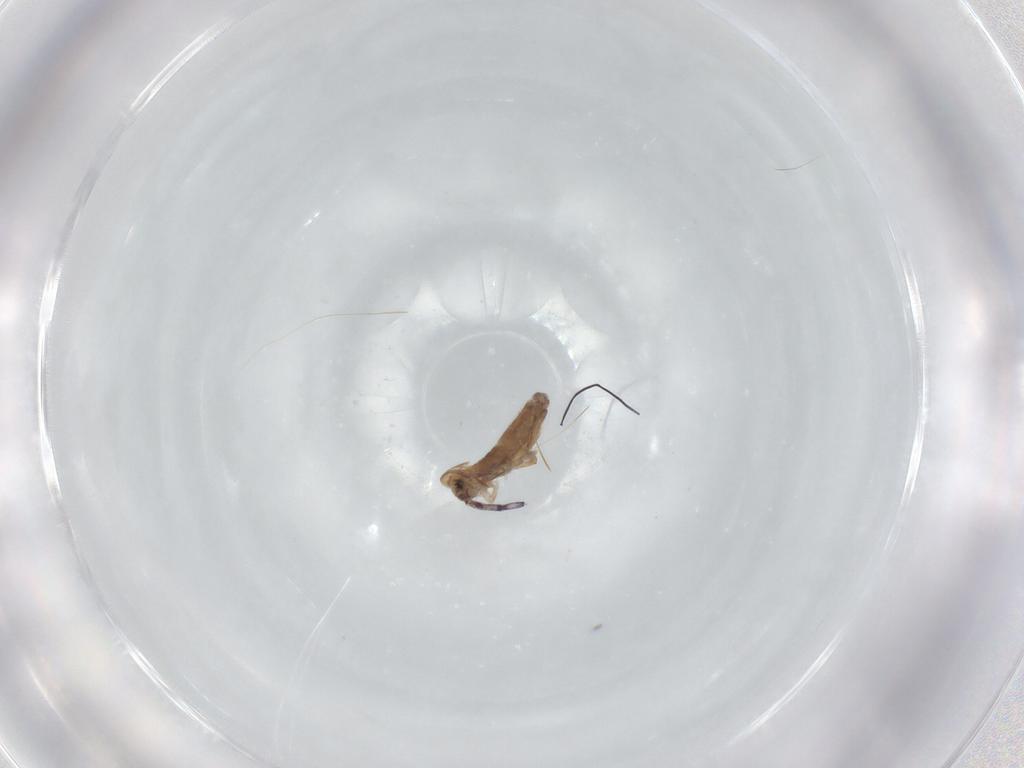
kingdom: Animalia
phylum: Arthropoda
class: Collembola
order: Entomobryomorpha
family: Entomobryidae
